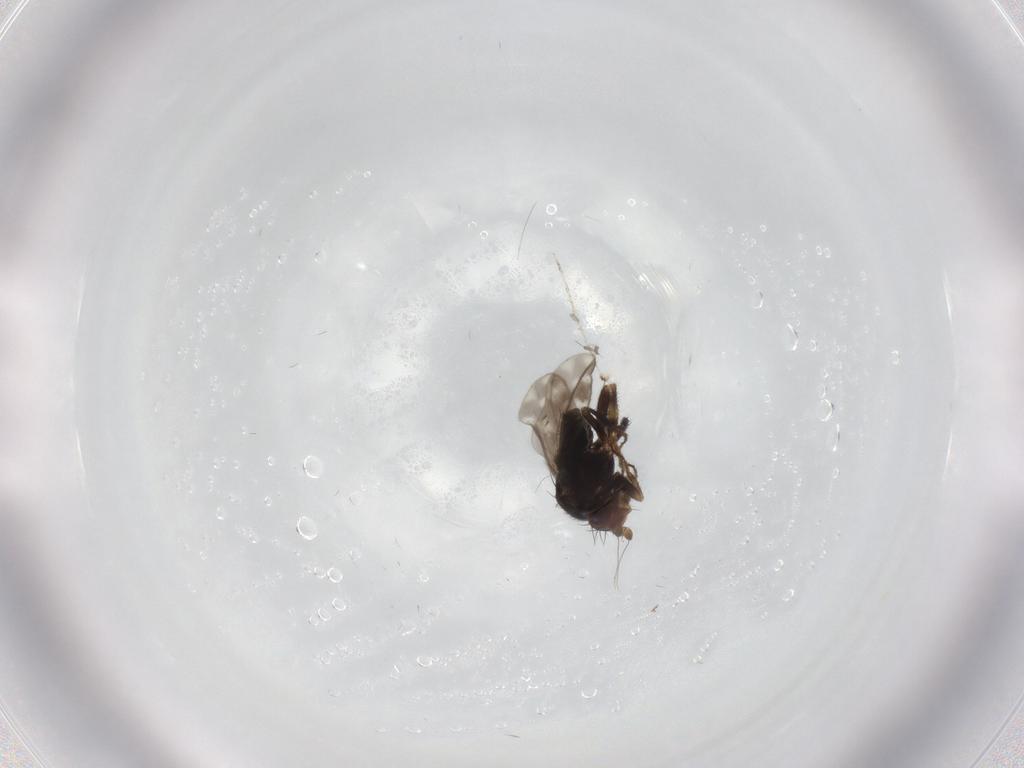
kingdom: Animalia
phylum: Arthropoda
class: Insecta
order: Diptera
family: Sphaeroceridae
